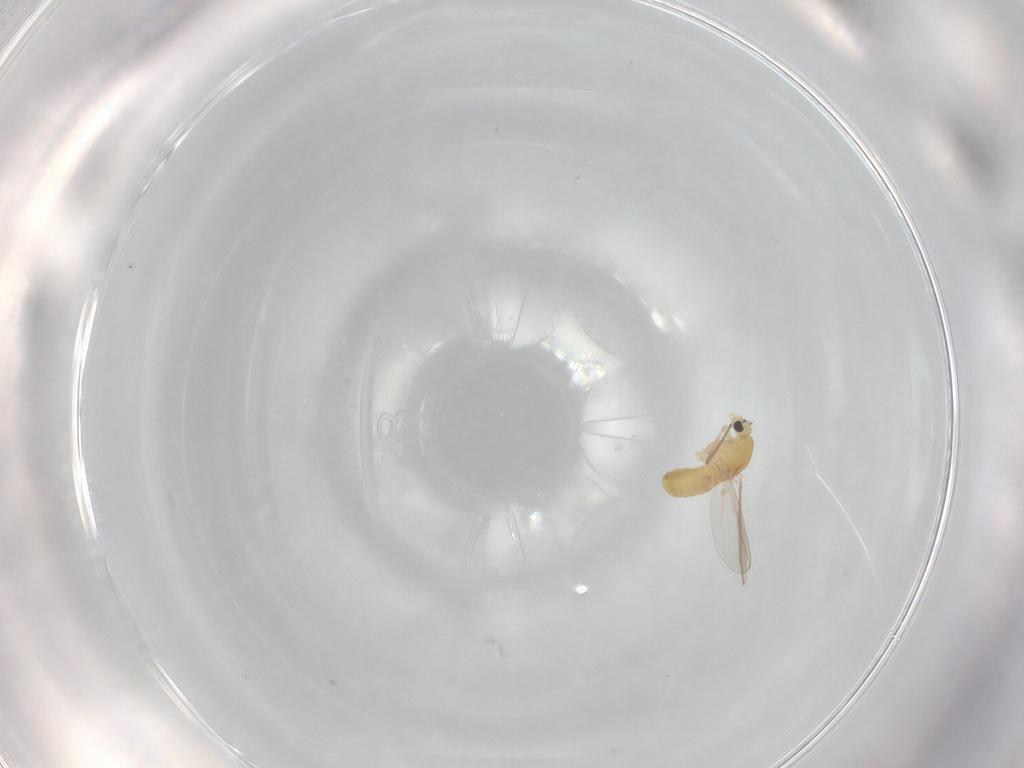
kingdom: Animalia
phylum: Arthropoda
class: Insecta
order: Diptera
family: Chironomidae
